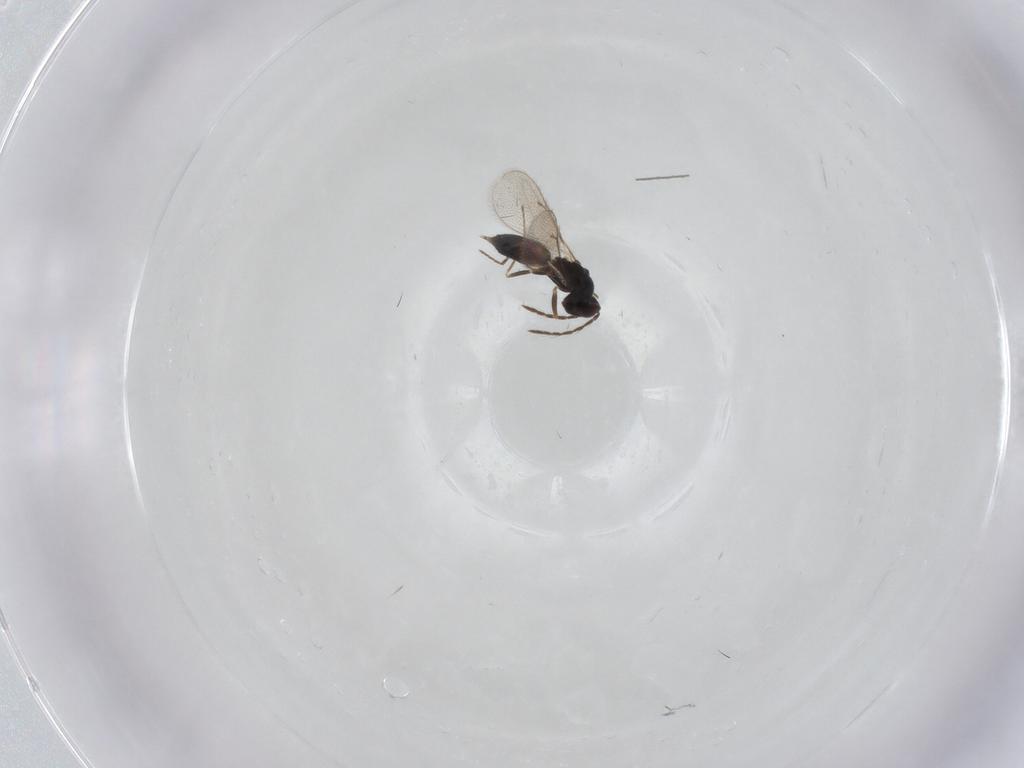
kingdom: Animalia
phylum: Arthropoda
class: Insecta
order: Hymenoptera
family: Eulophidae
